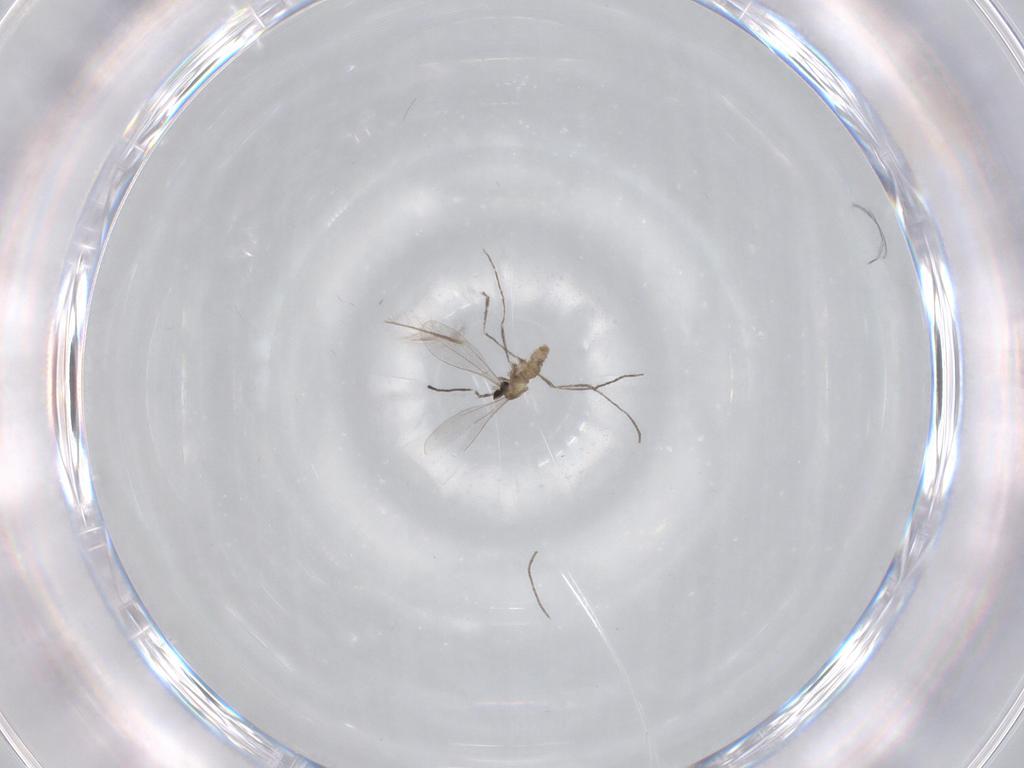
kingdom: Animalia
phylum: Arthropoda
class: Insecta
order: Diptera
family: Chironomidae
